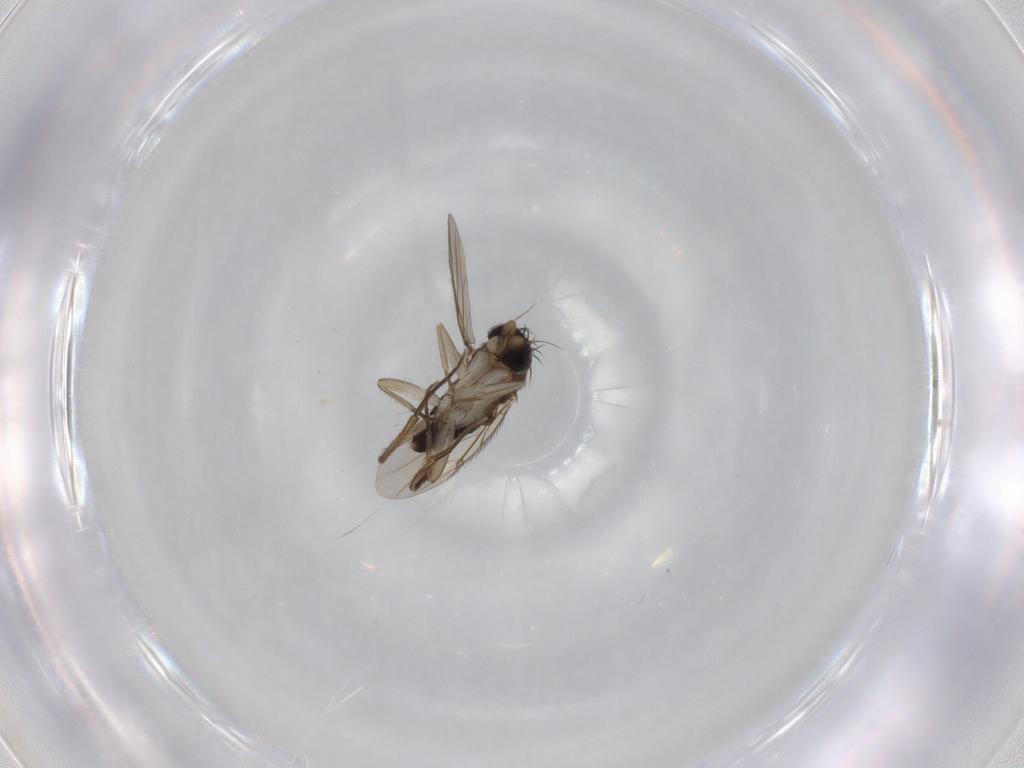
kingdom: Animalia
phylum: Arthropoda
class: Insecta
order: Diptera
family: Phoridae
